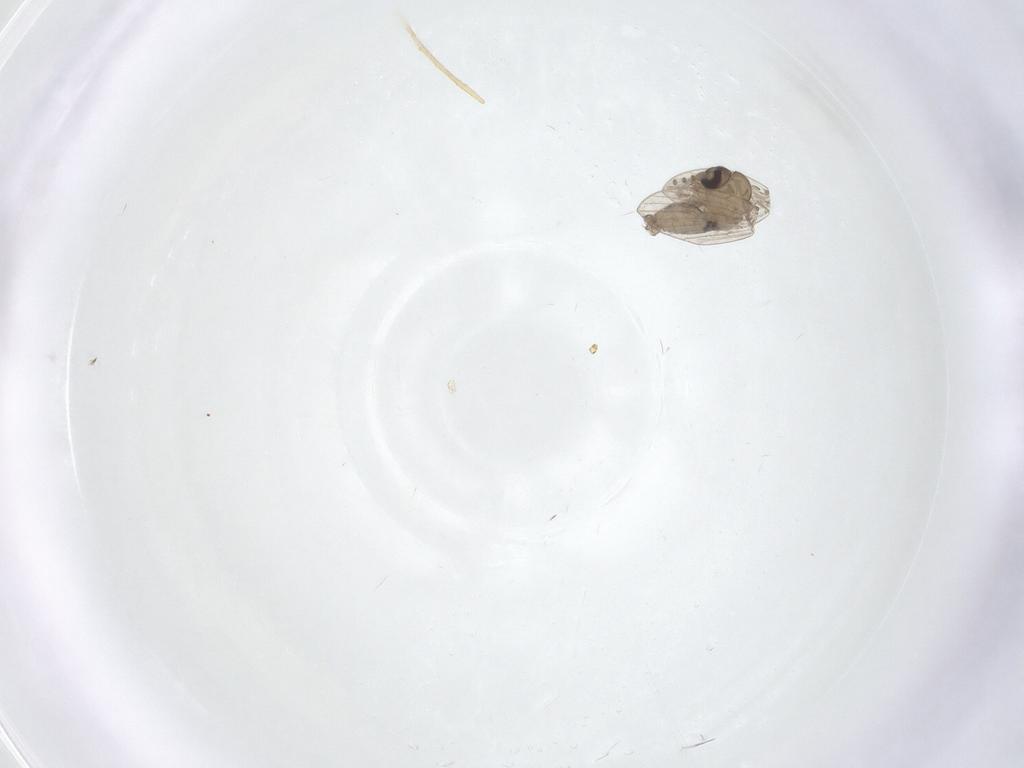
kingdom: Animalia
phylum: Arthropoda
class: Insecta
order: Diptera
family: Psychodidae
